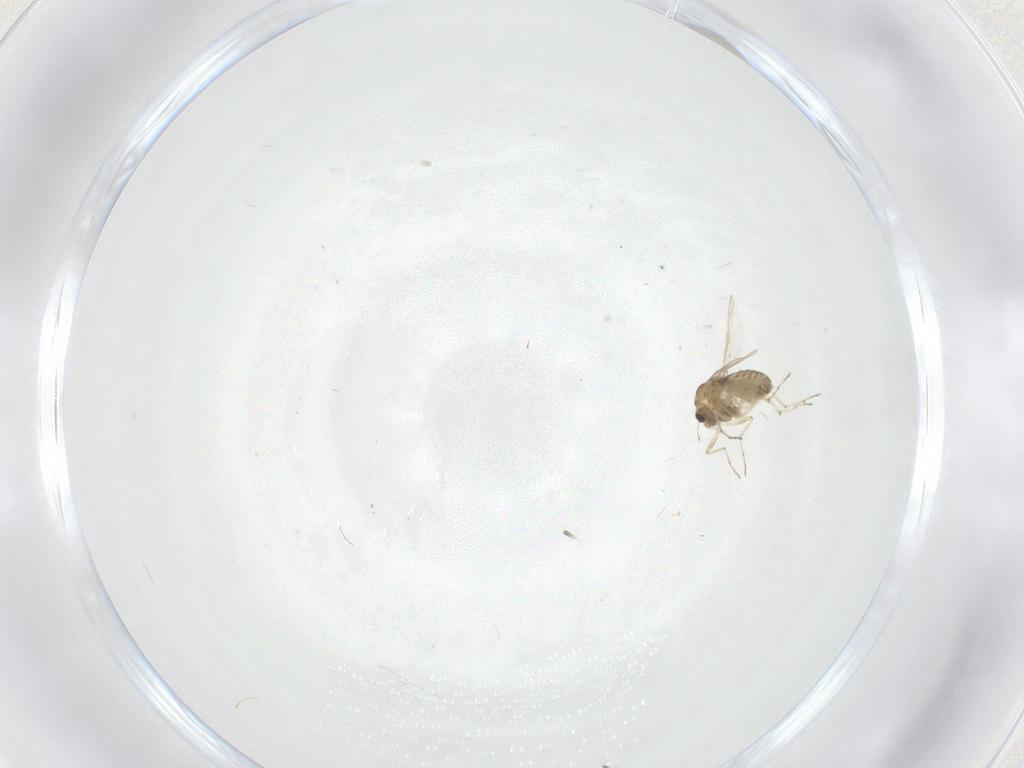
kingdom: Animalia
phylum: Arthropoda
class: Insecta
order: Diptera
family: Chironomidae
